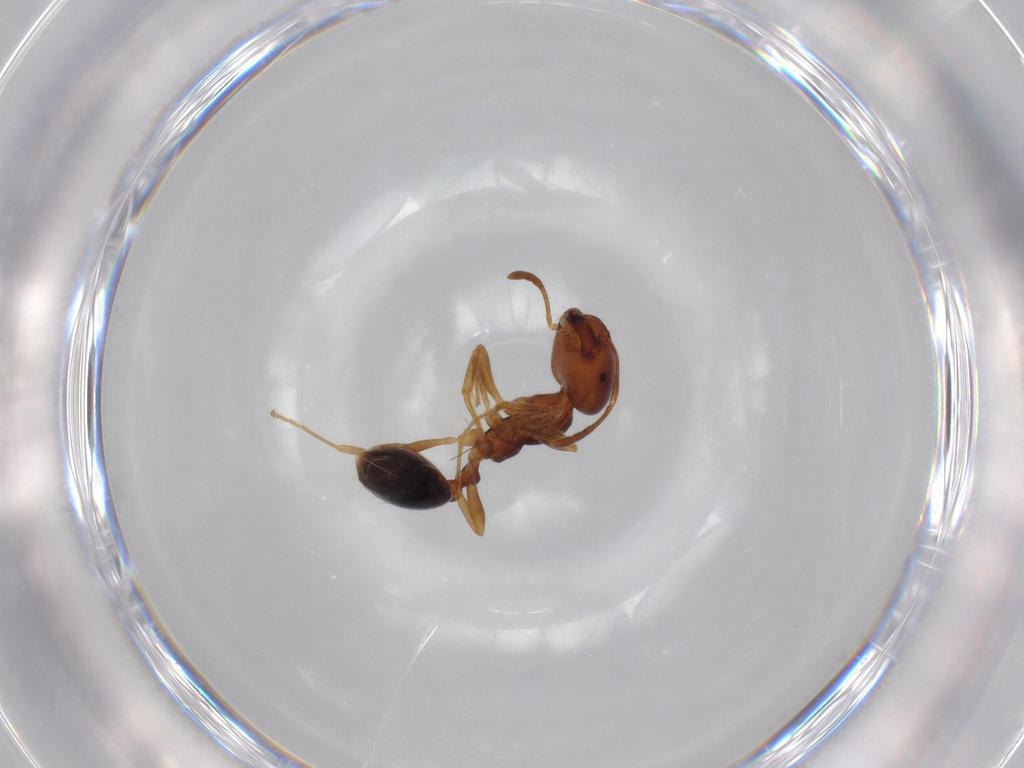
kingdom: Animalia
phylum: Arthropoda
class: Insecta
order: Hymenoptera
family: Formicidae
